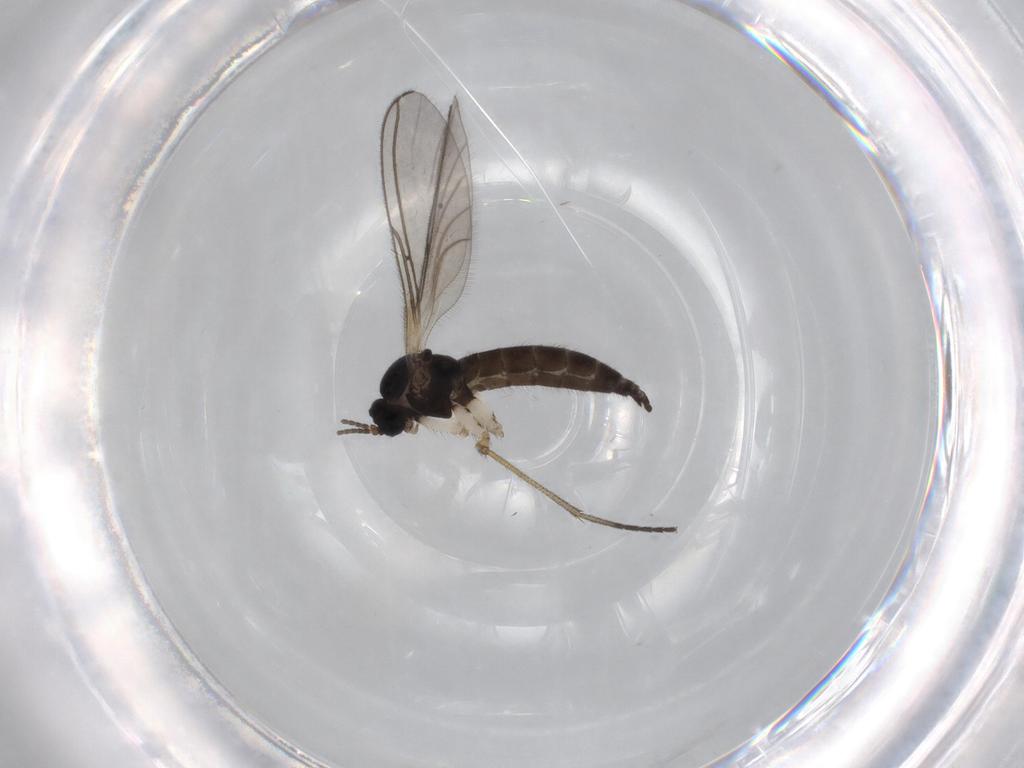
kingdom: Animalia
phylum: Arthropoda
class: Insecta
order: Diptera
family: Sciaridae
